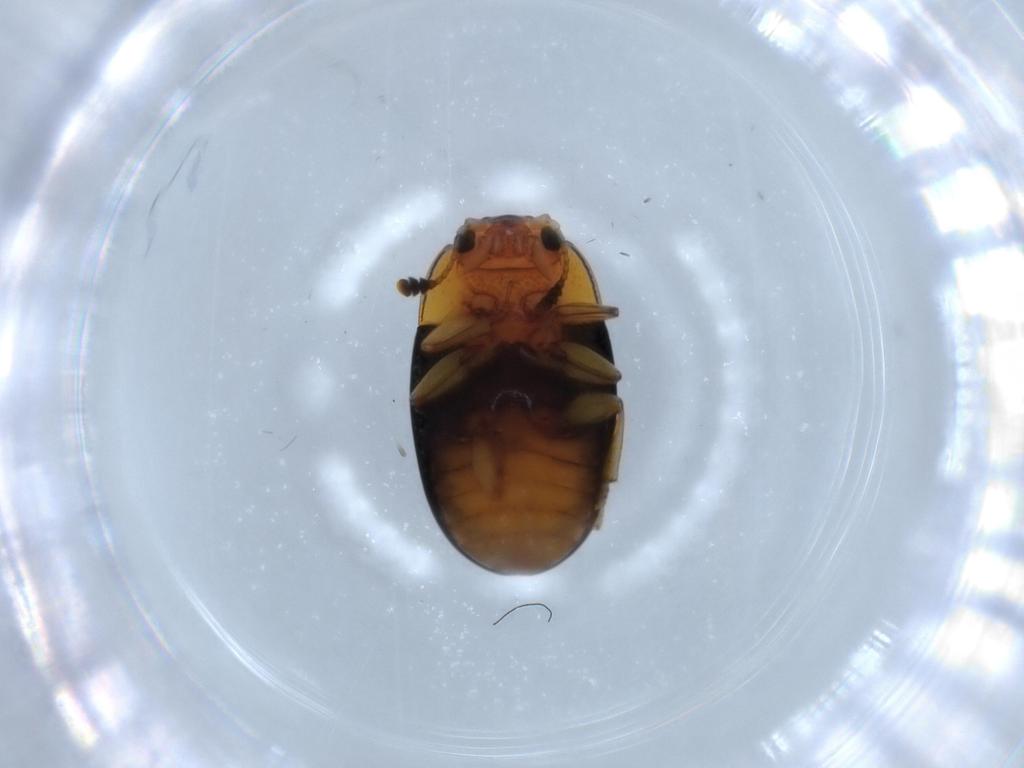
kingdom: Animalia
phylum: Arthropoda
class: Insecta
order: Coleoptera
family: Erotylidae
